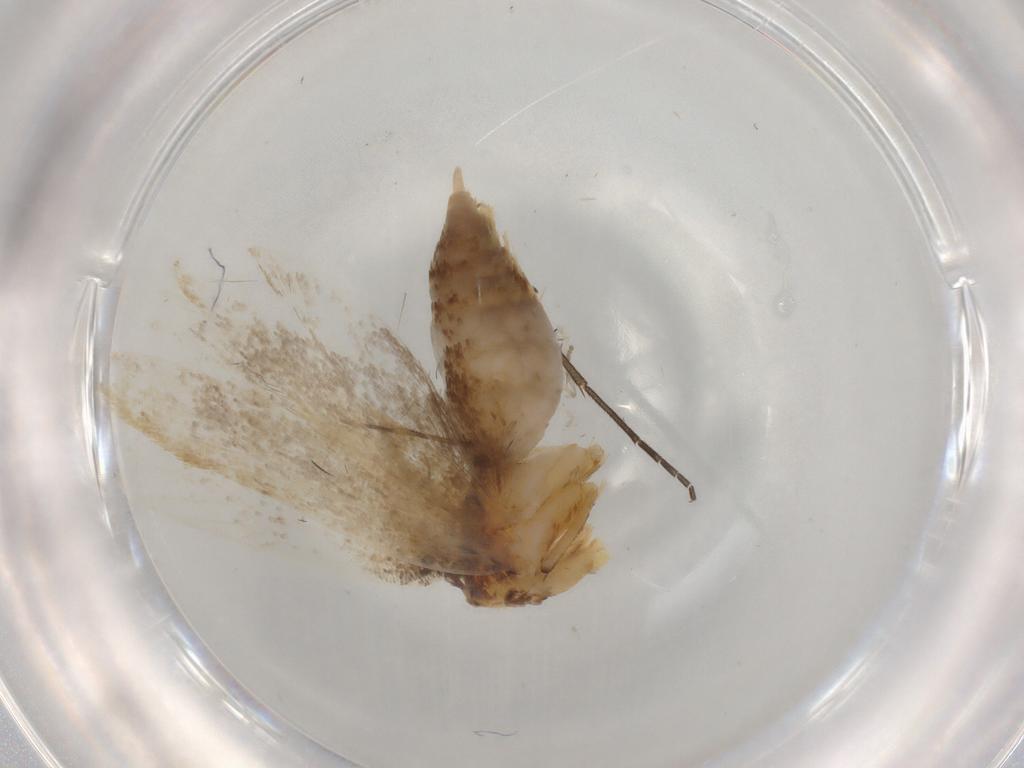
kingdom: Animalia
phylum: Arthropoda
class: Insecta
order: Lepidoptera
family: Lecithoceridae
